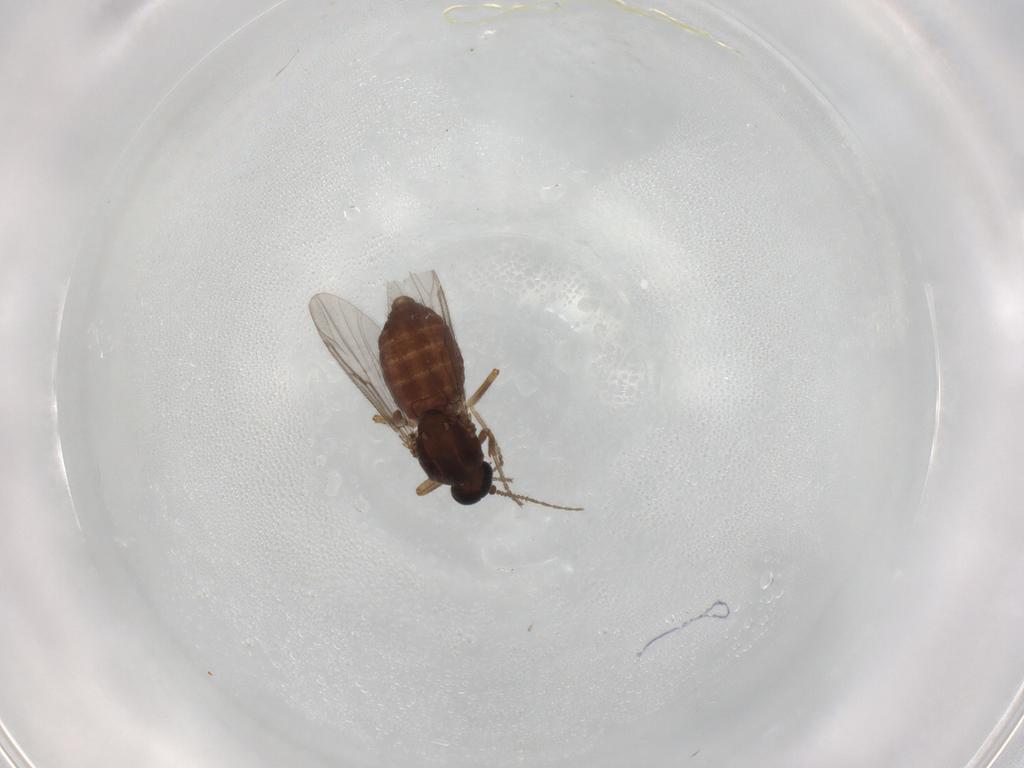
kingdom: Animalia
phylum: Arthropoda
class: Insecta
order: Diptera
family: Ceratopogonidae
